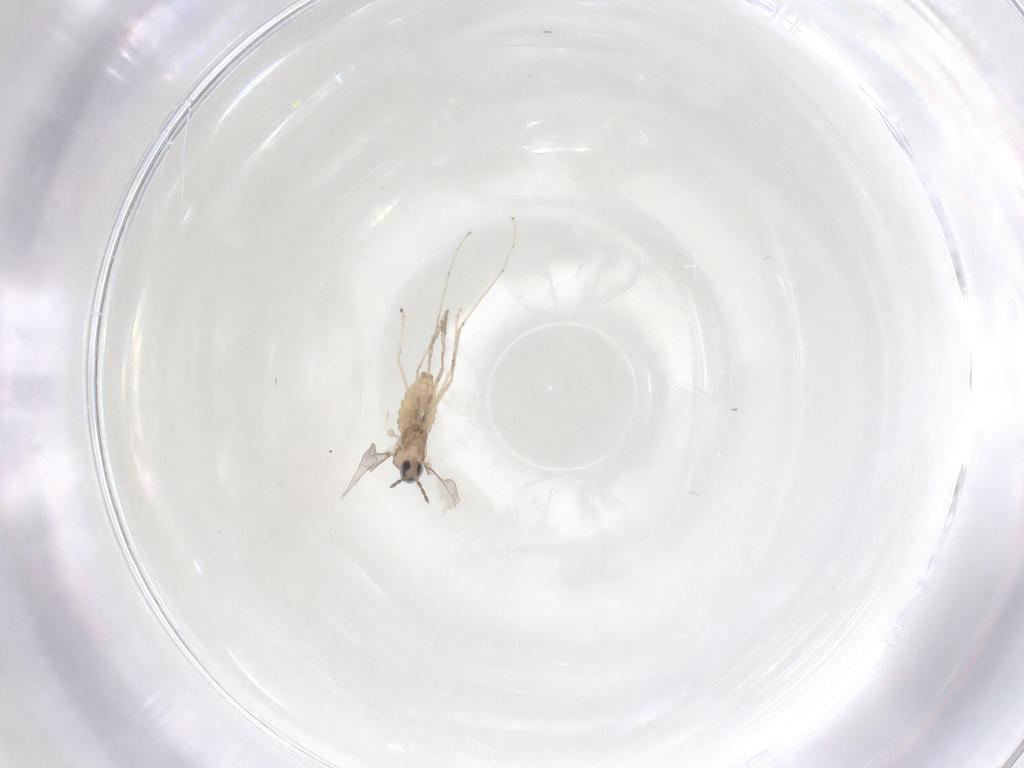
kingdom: Animalia
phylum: Arthropoda
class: Insecta
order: Diptera
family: Cecidomyiidae
